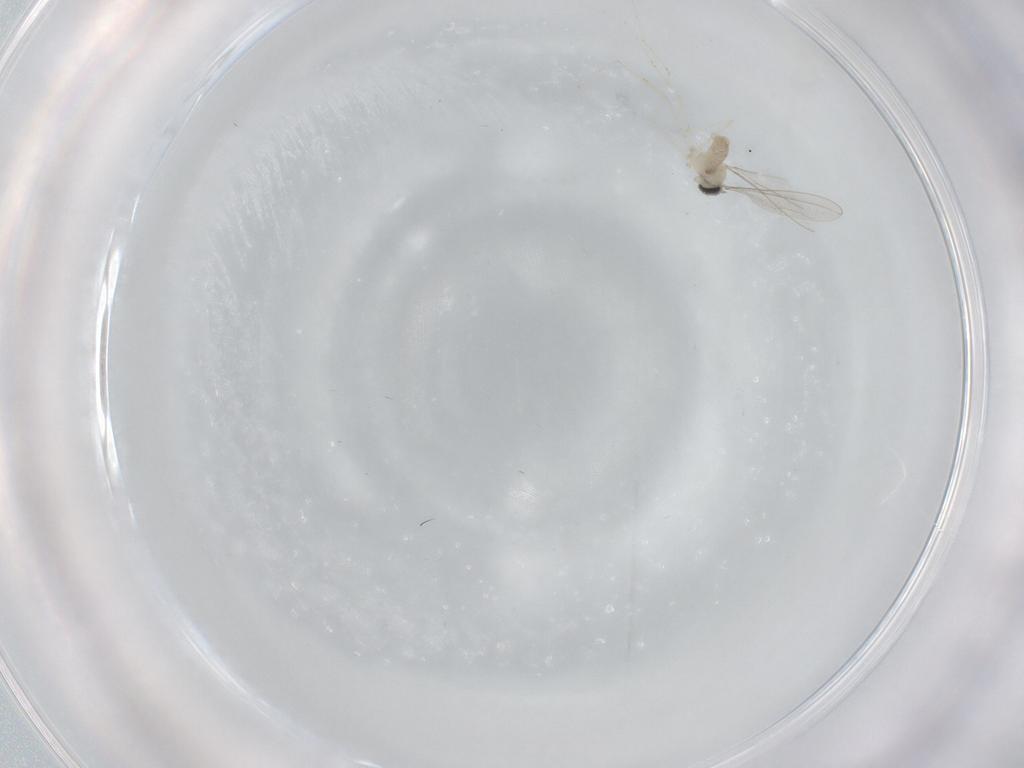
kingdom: Animalia
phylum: Arthropoda
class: Insecta
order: Diptera
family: Cecidomyiidae
